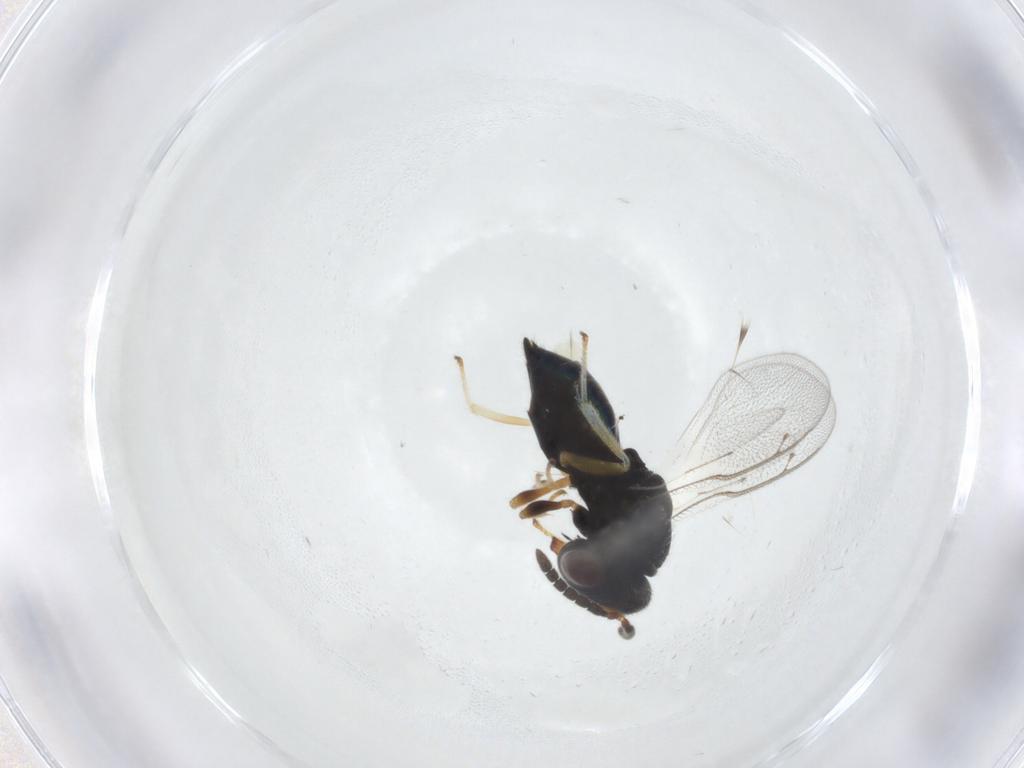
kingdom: Animalia
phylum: Arthropoda
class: Insecta
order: Hymenoptera
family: Pteromalidae
